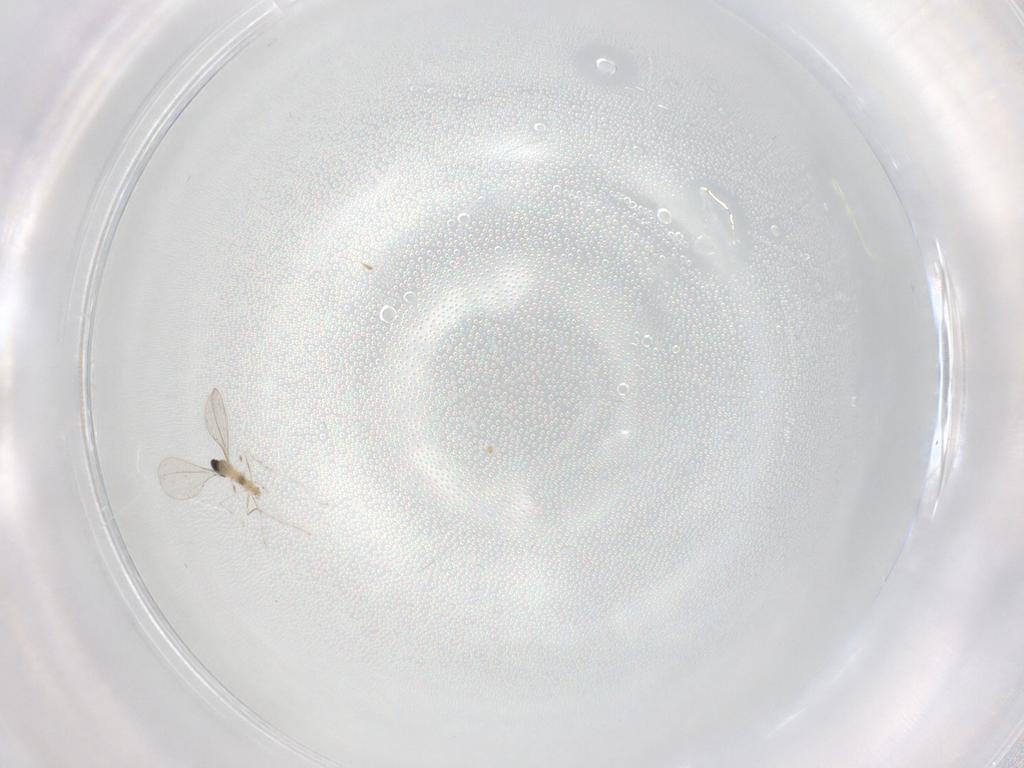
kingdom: Animalia
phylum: Arthropoda
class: Insecta
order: Diptera
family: Cecidomyiidae
